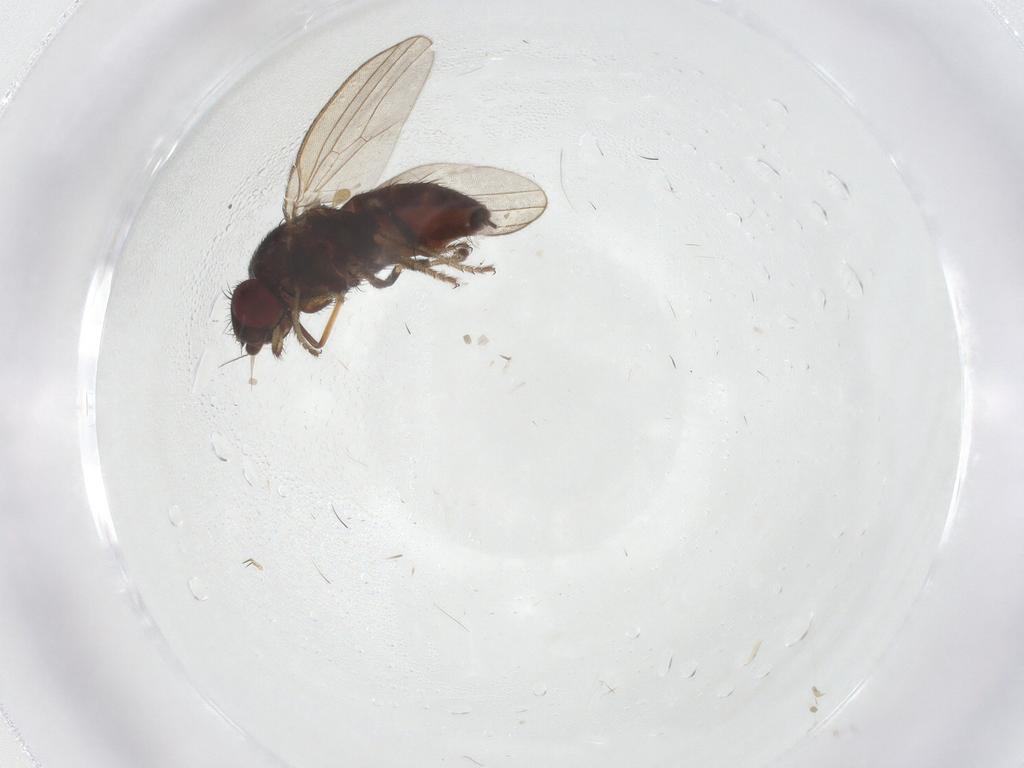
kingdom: Animalia
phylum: Arthropoda
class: Insecta
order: Diptera
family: Milichiidae
